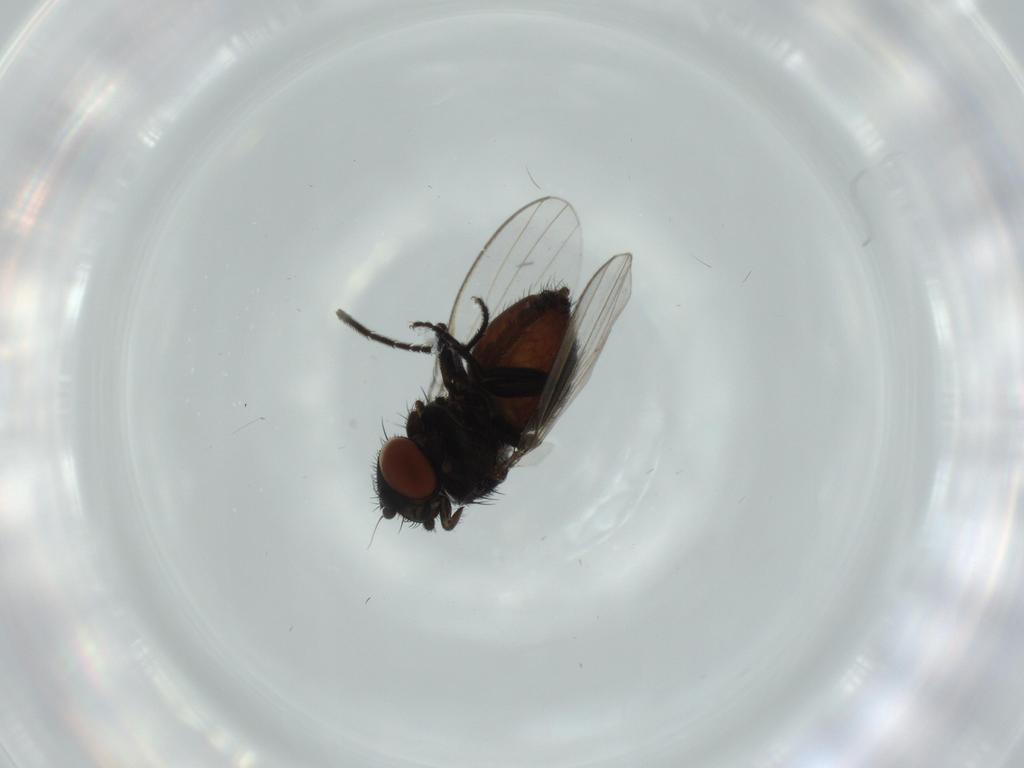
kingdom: Animalia
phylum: Arthropoda
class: Insecta
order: Diptera
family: Milichiidae
